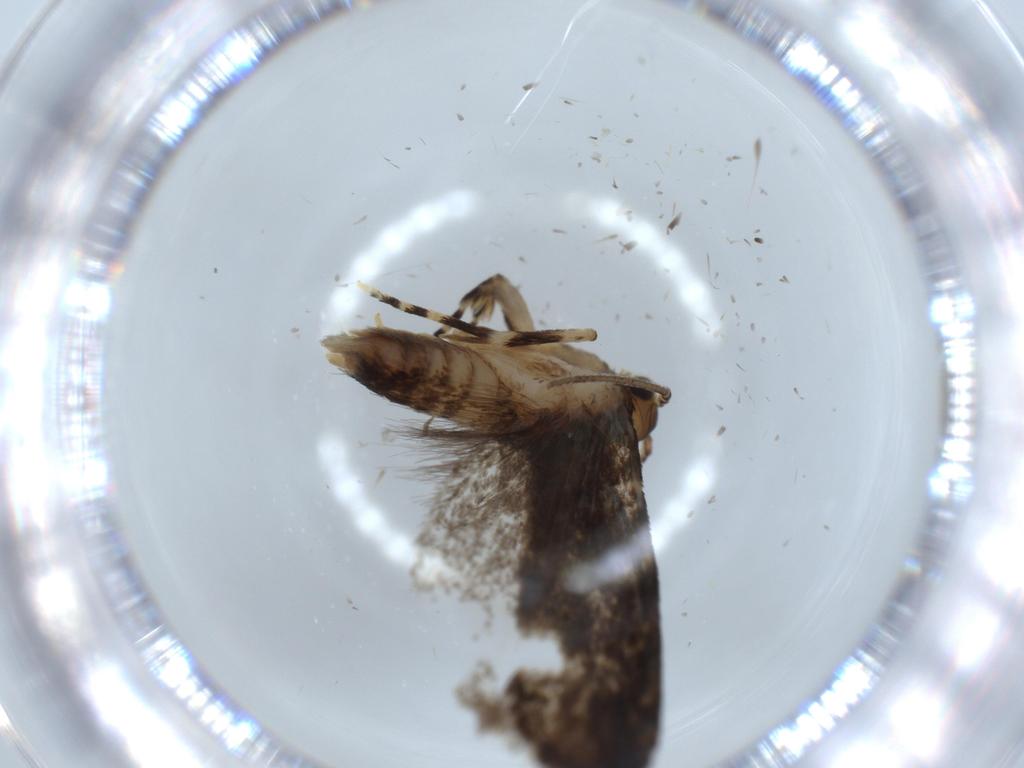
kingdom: Animalia
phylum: Arthropoda
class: Insecta
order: Lepidoptera
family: Tineidae
